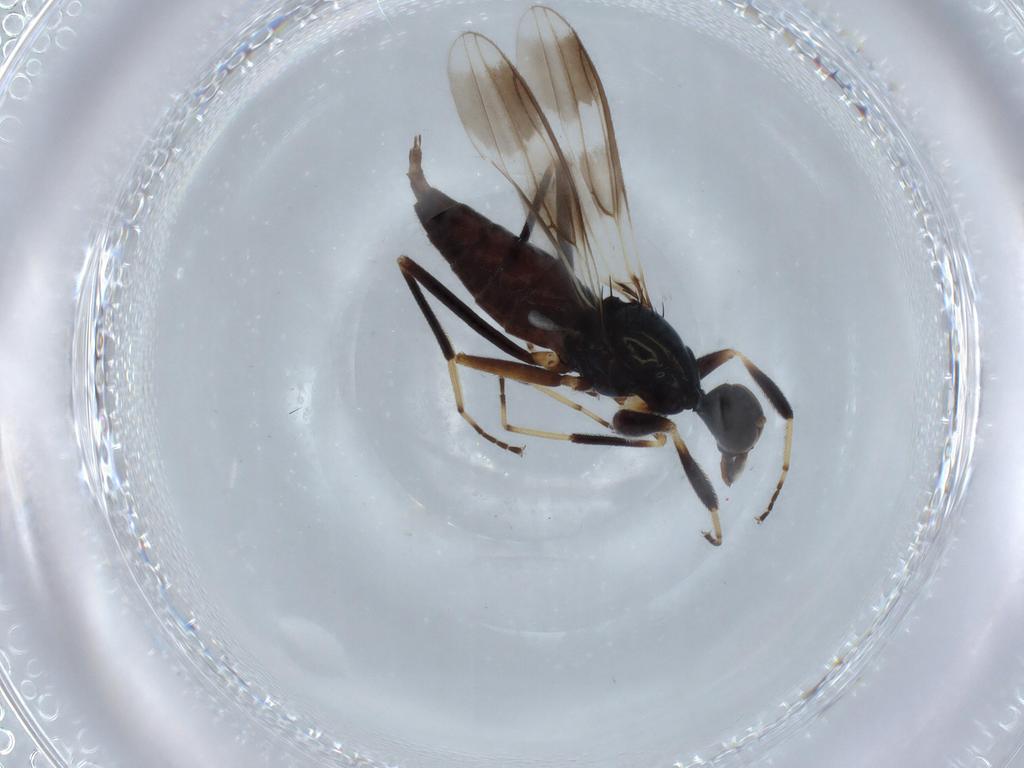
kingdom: Animalia
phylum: Arthropoda
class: Insecta
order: Diptera
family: Hybotidae
